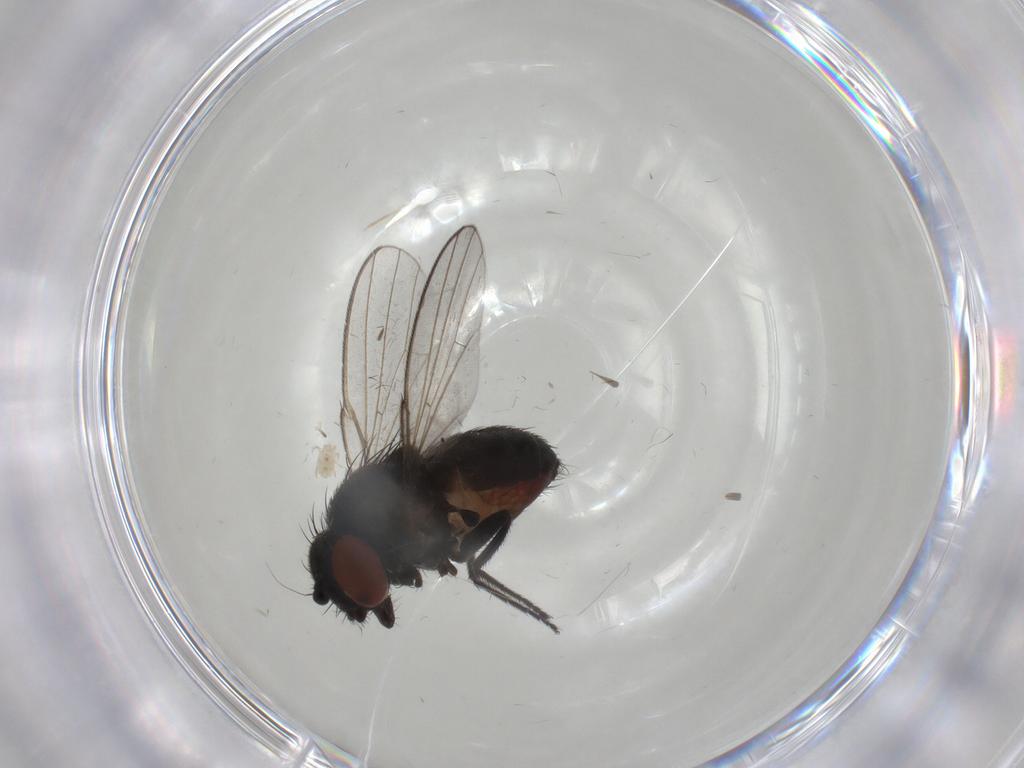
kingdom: Animalia
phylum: Arthropoda
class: Insecta
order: Diptera
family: Milichiidae
